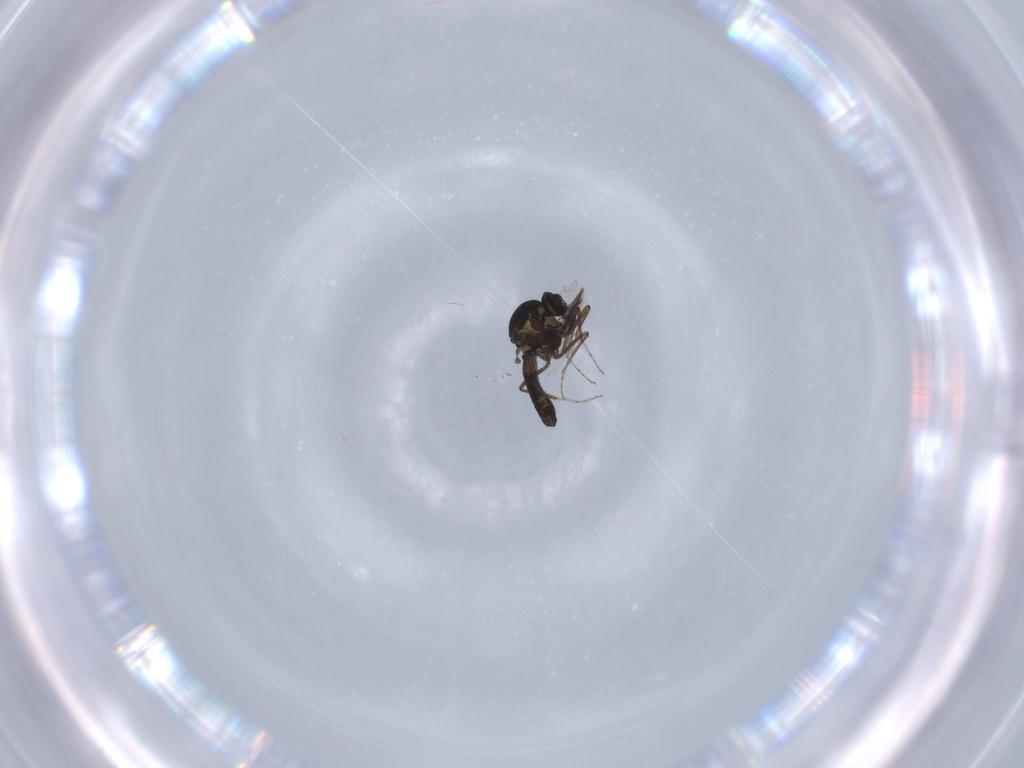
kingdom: Animalia
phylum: Arthropoda
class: Insecta
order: Diptera
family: Ceratopogonidae
